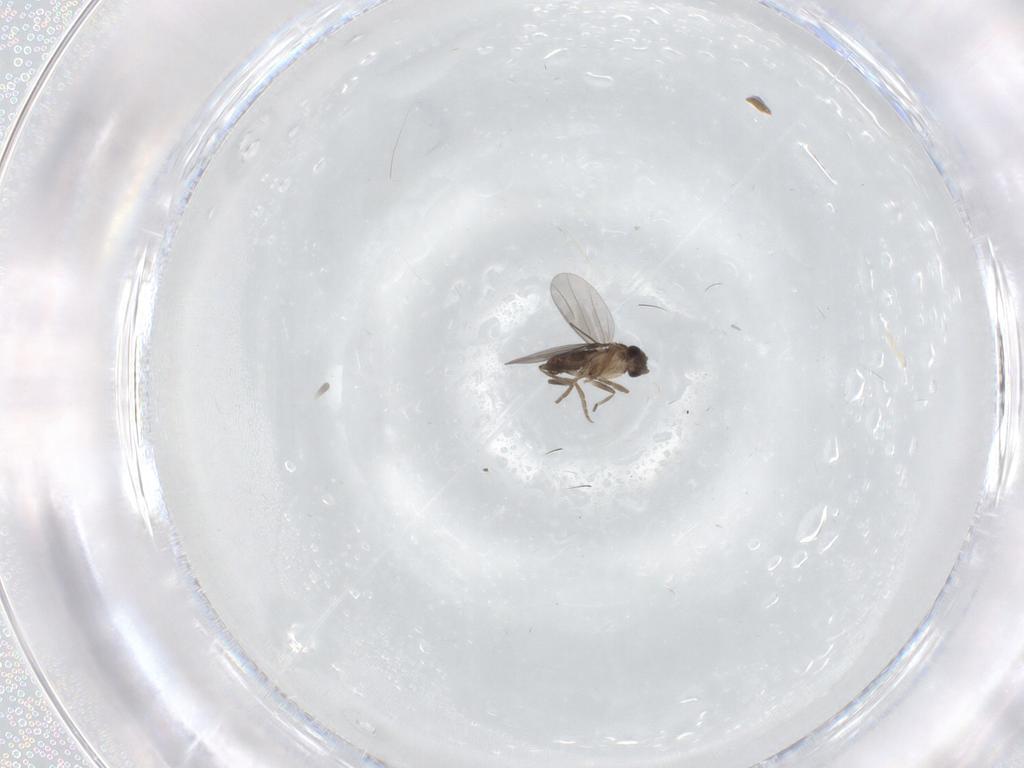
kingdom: Animalia
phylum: Arthropoda
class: Insecta
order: Diptera
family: Dolichopodidae
